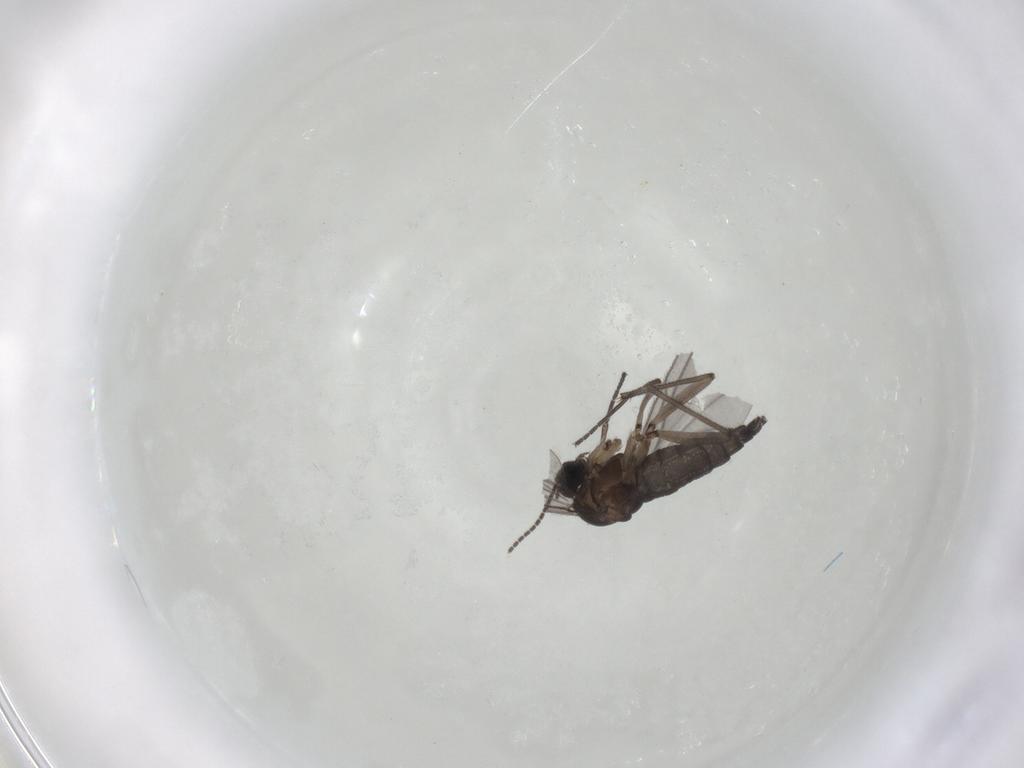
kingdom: Animalia
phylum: Arthropoda
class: Insecta
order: Diptera
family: Sciaridae
